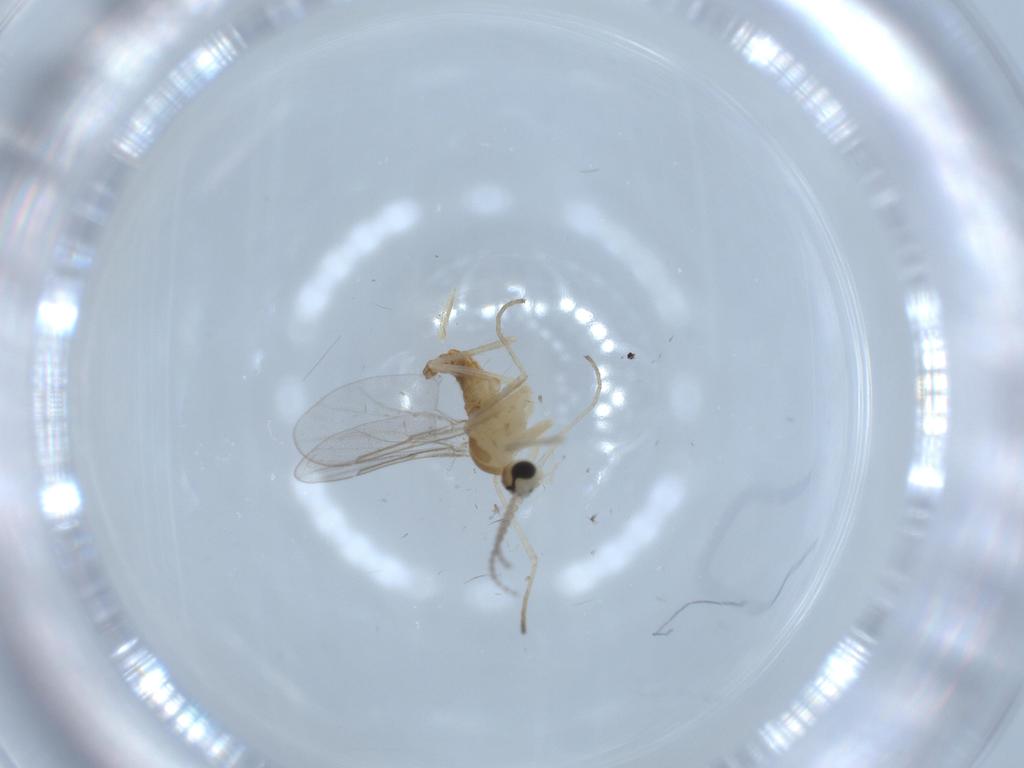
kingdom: Animalia
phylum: Arthropoda
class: Insecta
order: Diptera
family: Cecidomyiidae
